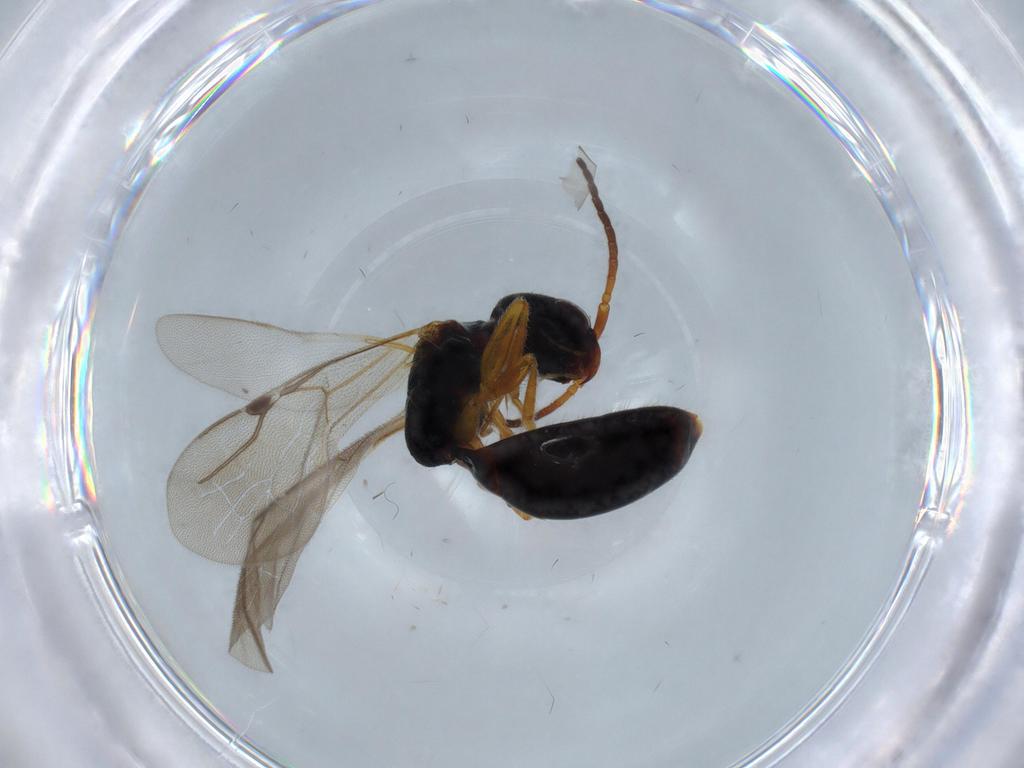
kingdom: Animalia
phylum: Arthropoda
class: Insecta
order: Hymenoptera
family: Bethylidae
